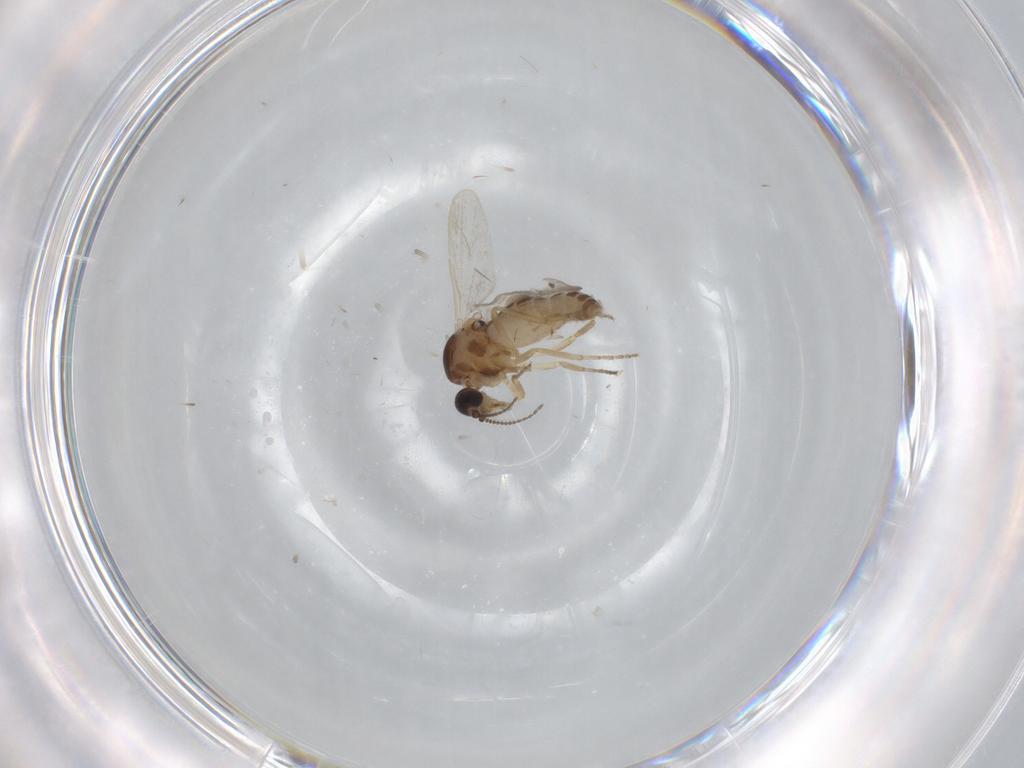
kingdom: Animalia
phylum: Arthropoda
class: Insecta
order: Diptera
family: Ceratopogonidae
